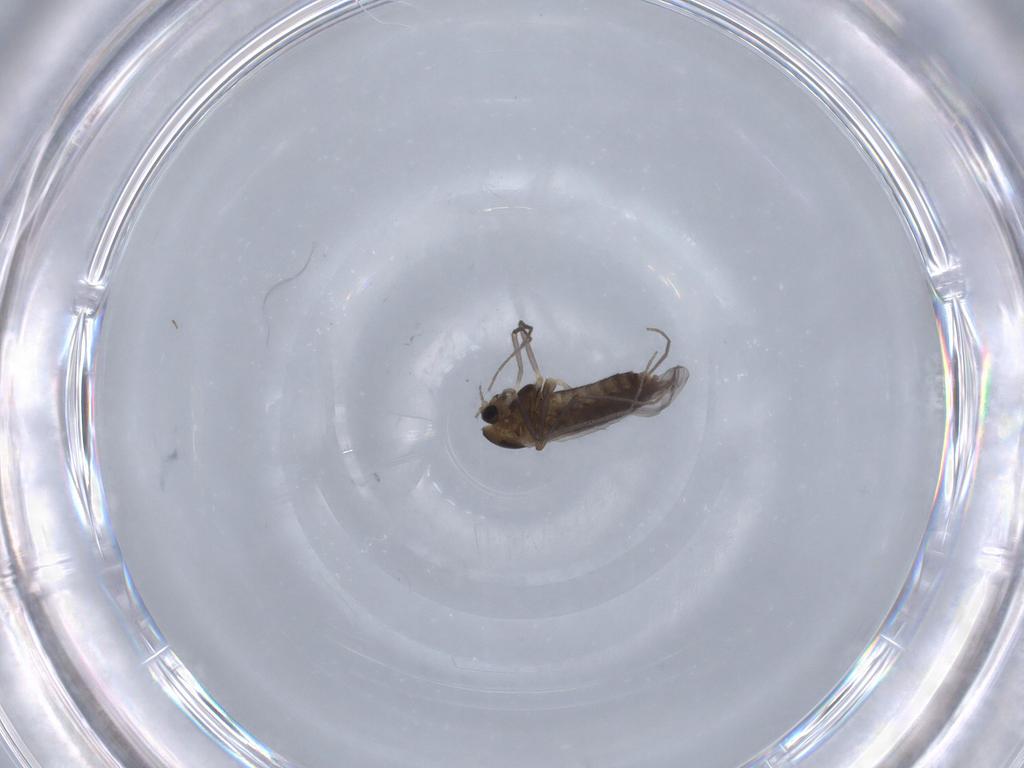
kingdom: Animalia
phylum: Arthropoda
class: Insecta
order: Diptera
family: Chironomidae
